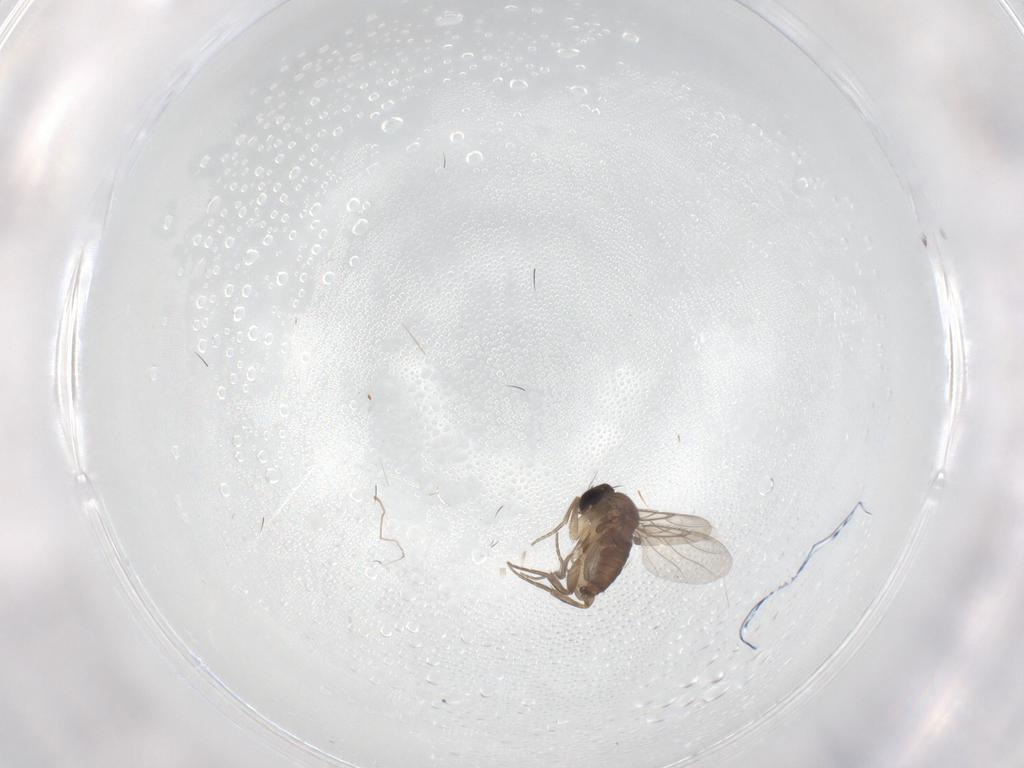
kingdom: Animalia
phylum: Arthropoda
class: Insecta
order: Diptera
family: Phoridae
